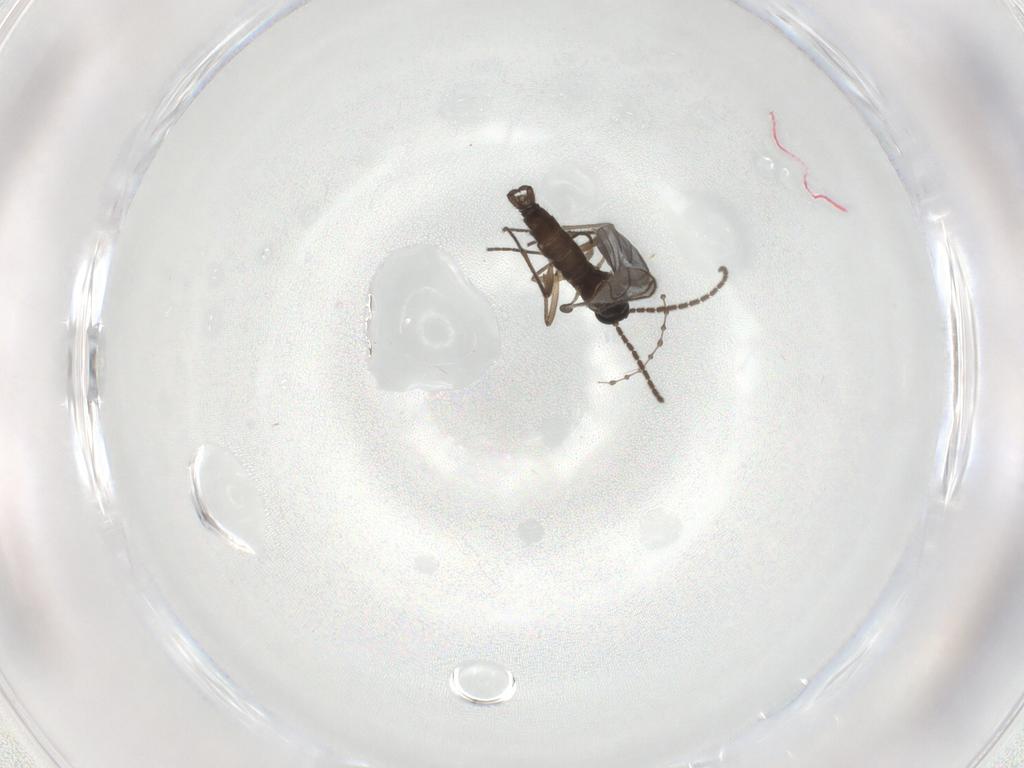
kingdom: Animalia
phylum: Arthropoda
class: Insecta
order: Diptera
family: Sciaridae
